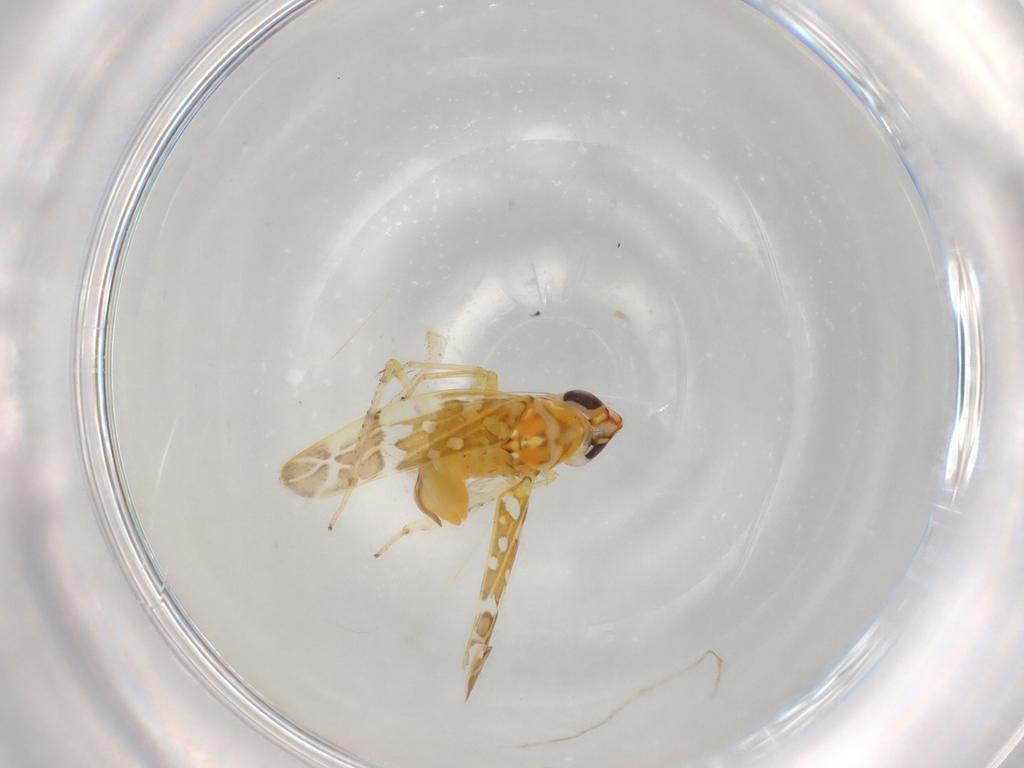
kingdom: Animalia
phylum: Arthropoda
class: Insecta
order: Hemiptera
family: Cicadellidae
